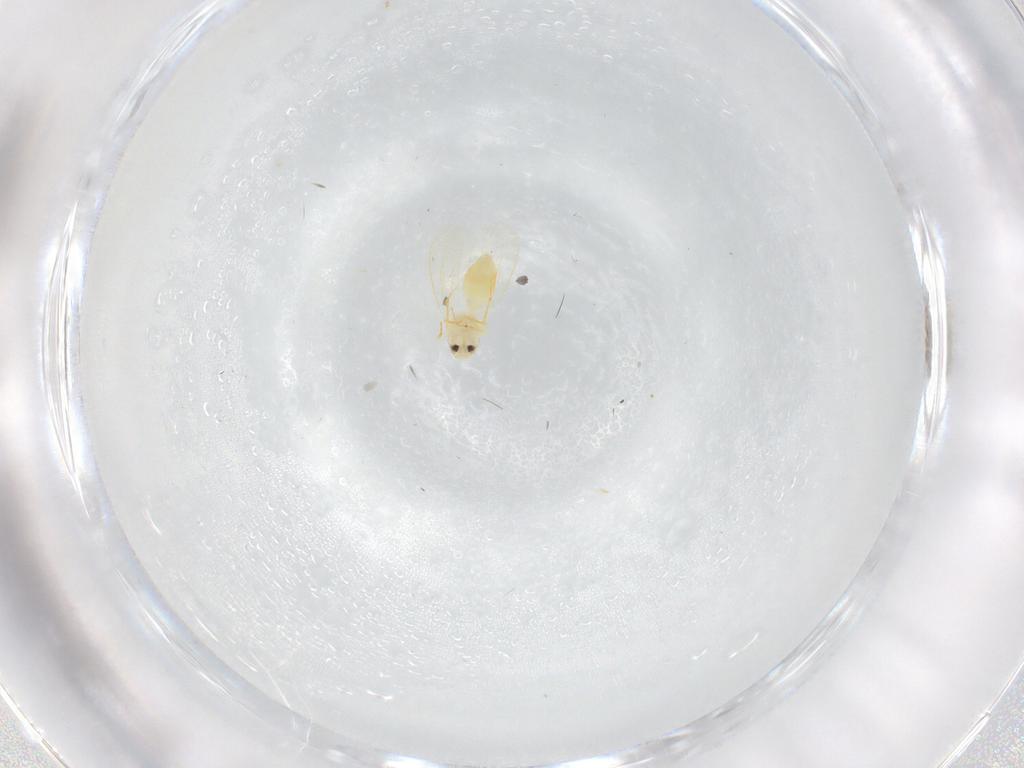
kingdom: Animalia
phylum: Arthropoda
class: Insecta
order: Hemiptera
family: Aleyrodidae
